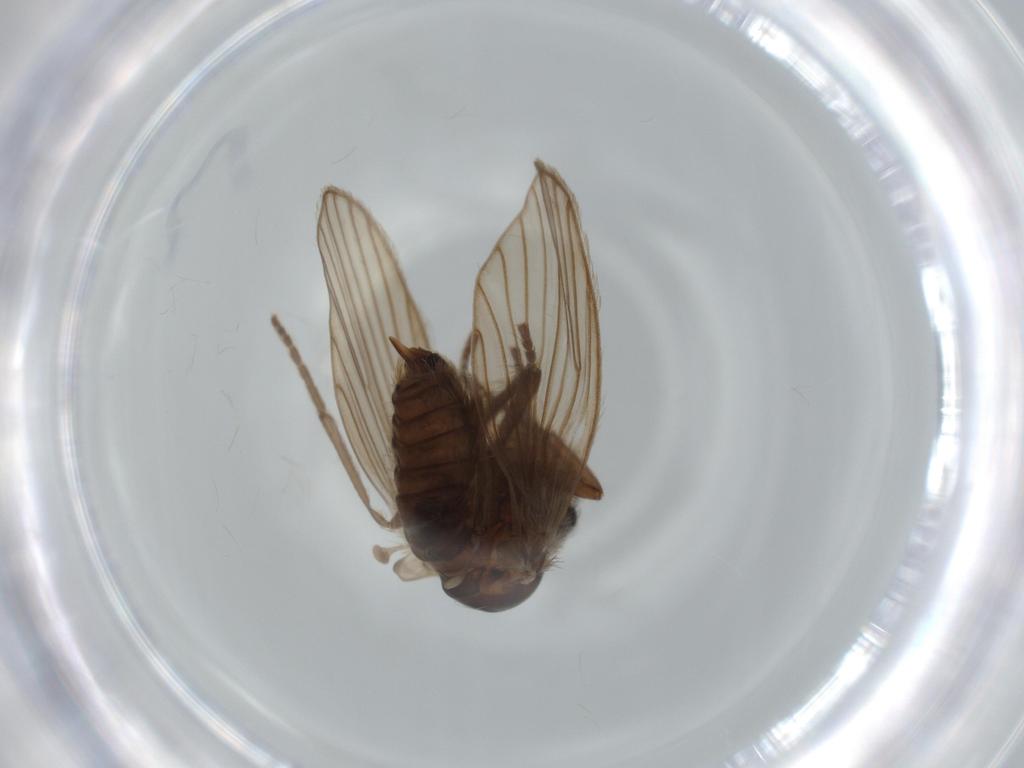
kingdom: Animalia
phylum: Arthropoda
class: Insecta
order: Diptera
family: Psychodidae
